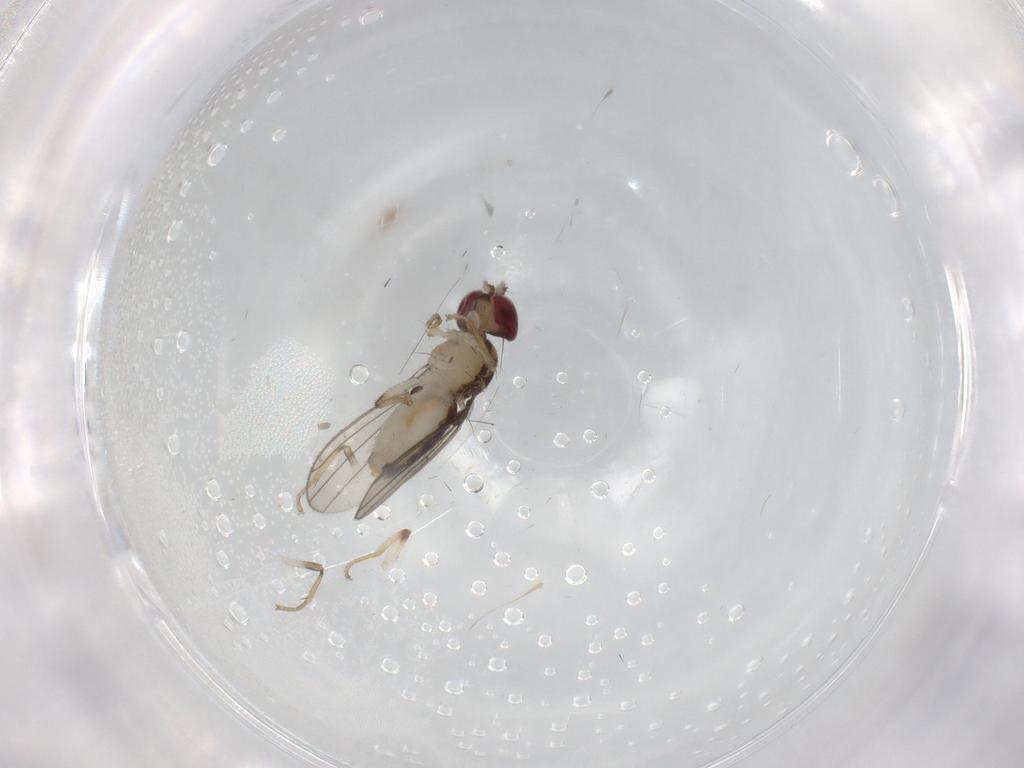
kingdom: Animalia
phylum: Arthropoda
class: Insecta
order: Diptera
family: Anthomyzidae
